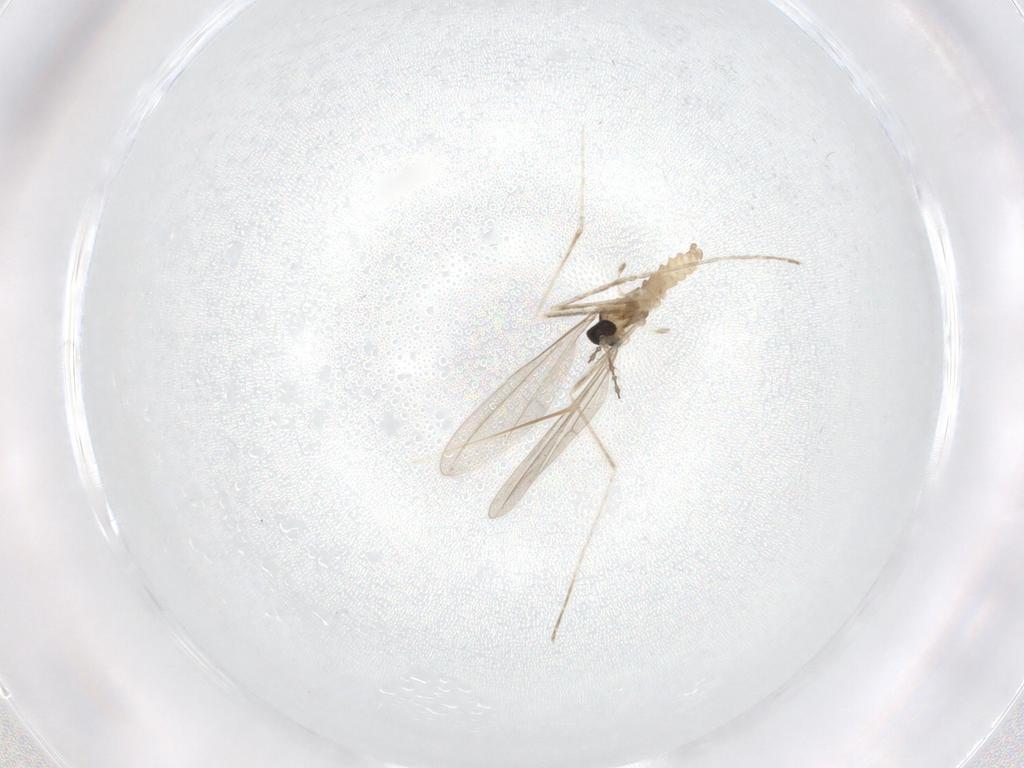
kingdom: Animalia
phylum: Arthropoda
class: Insecta
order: Diptera
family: Cecidomyiidae
